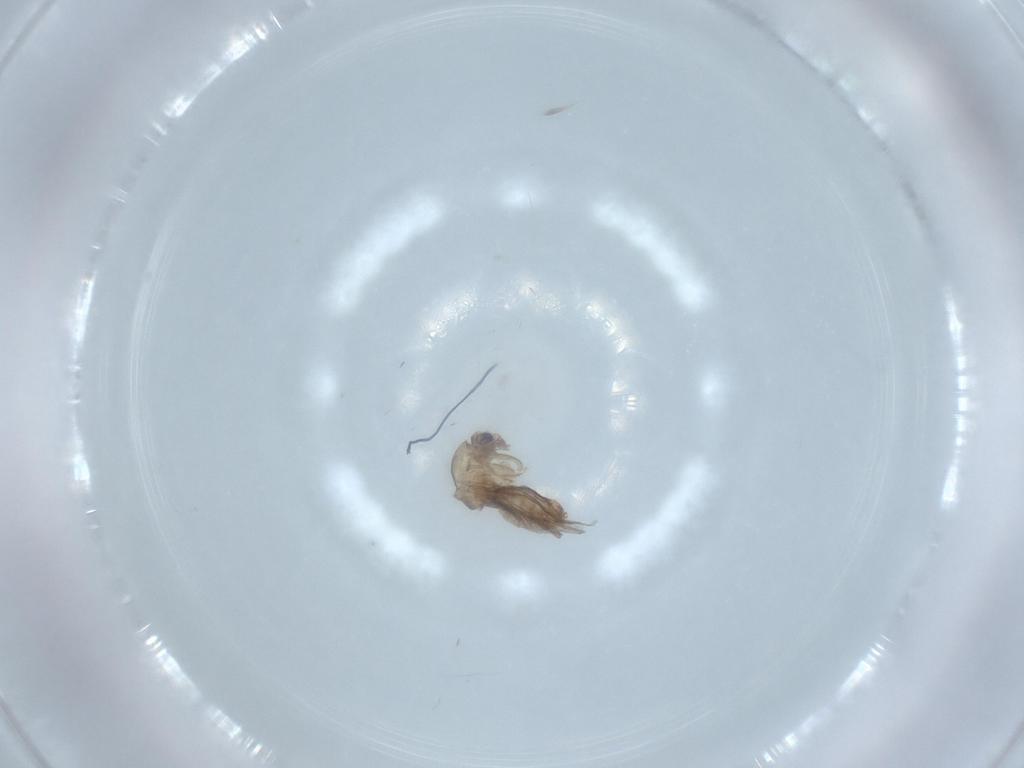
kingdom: Animalia
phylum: Arthropoda
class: Insecta
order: Diptera
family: Chironomidae
